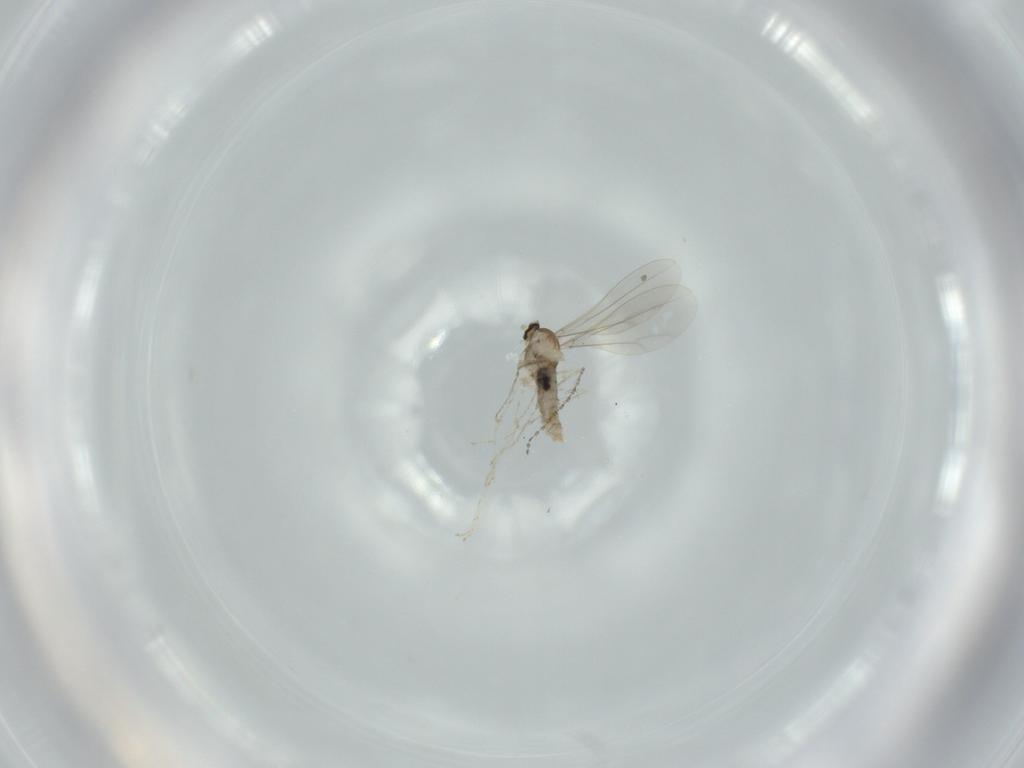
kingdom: Animalia
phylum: Arthropoda
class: Insecta
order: Diptera
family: Cecidomyiidae
